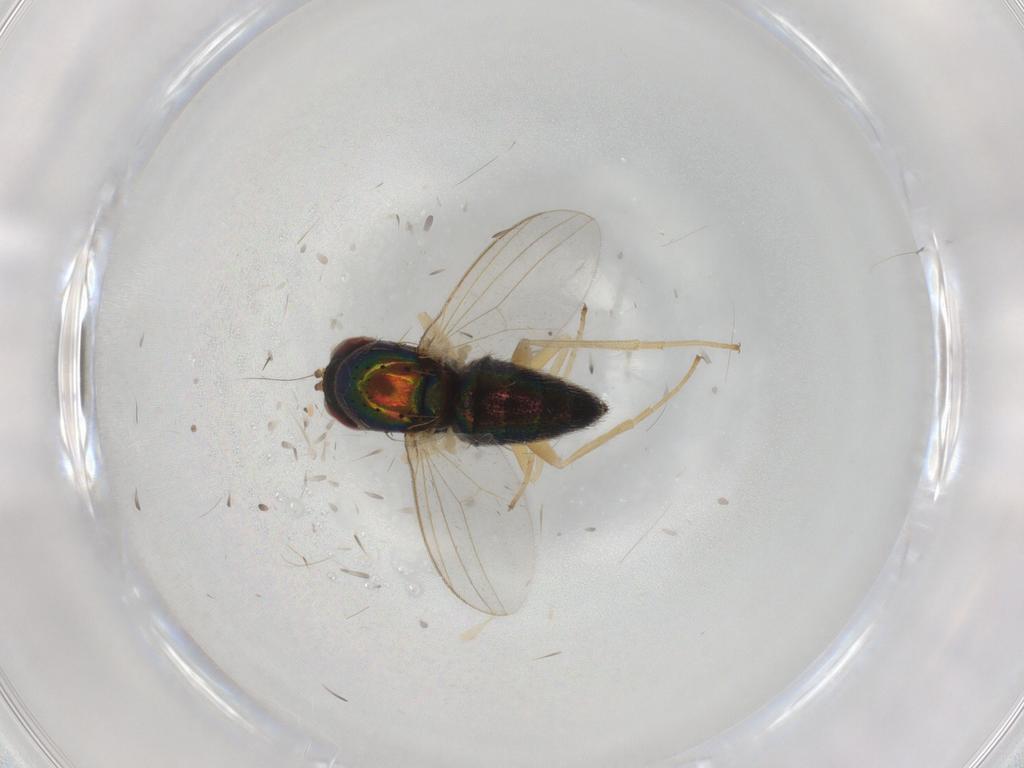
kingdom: Animalia
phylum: Arthropoda
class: Insecta
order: Diptera
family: Dolichopodidae
